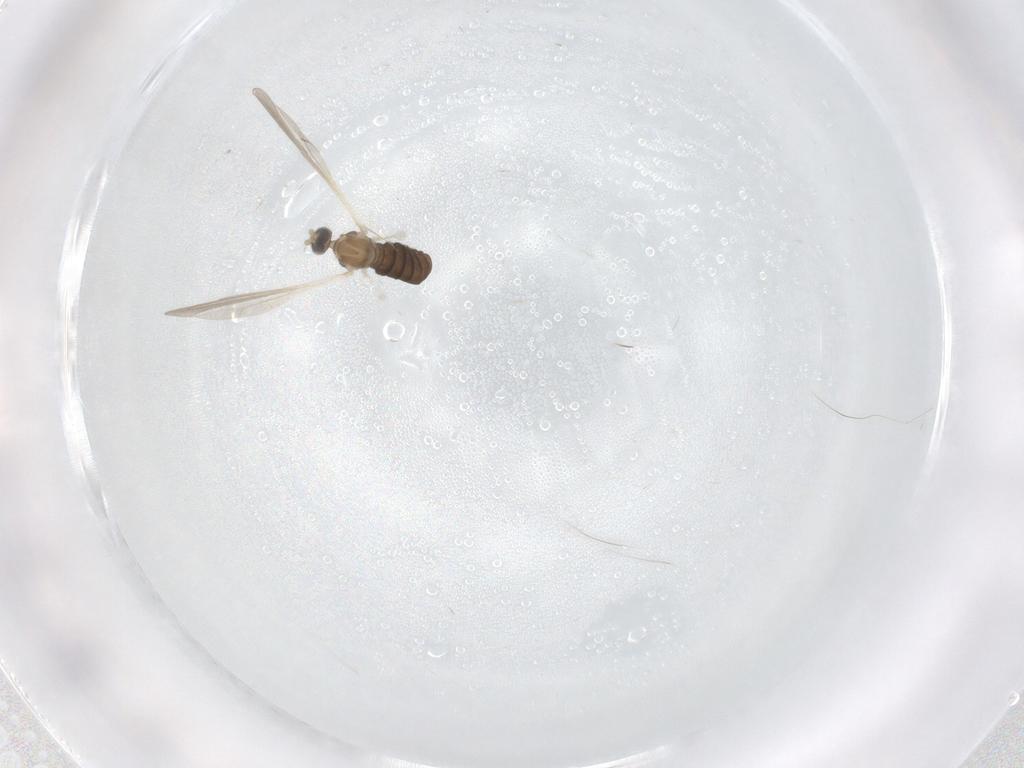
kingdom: Animalia
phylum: Arthropoda
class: Insecta
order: Diptera
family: Cecidomyiidae
